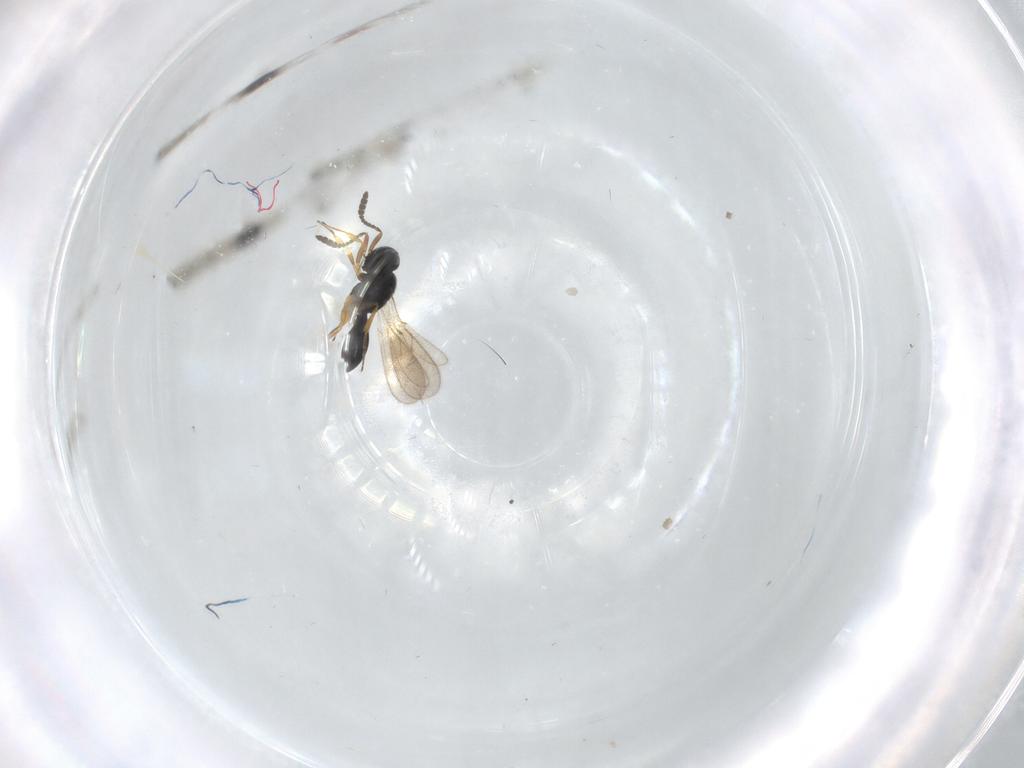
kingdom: Animalia
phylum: Arthropoda
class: Insecta
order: Hymenoptera
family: Scelionidae
